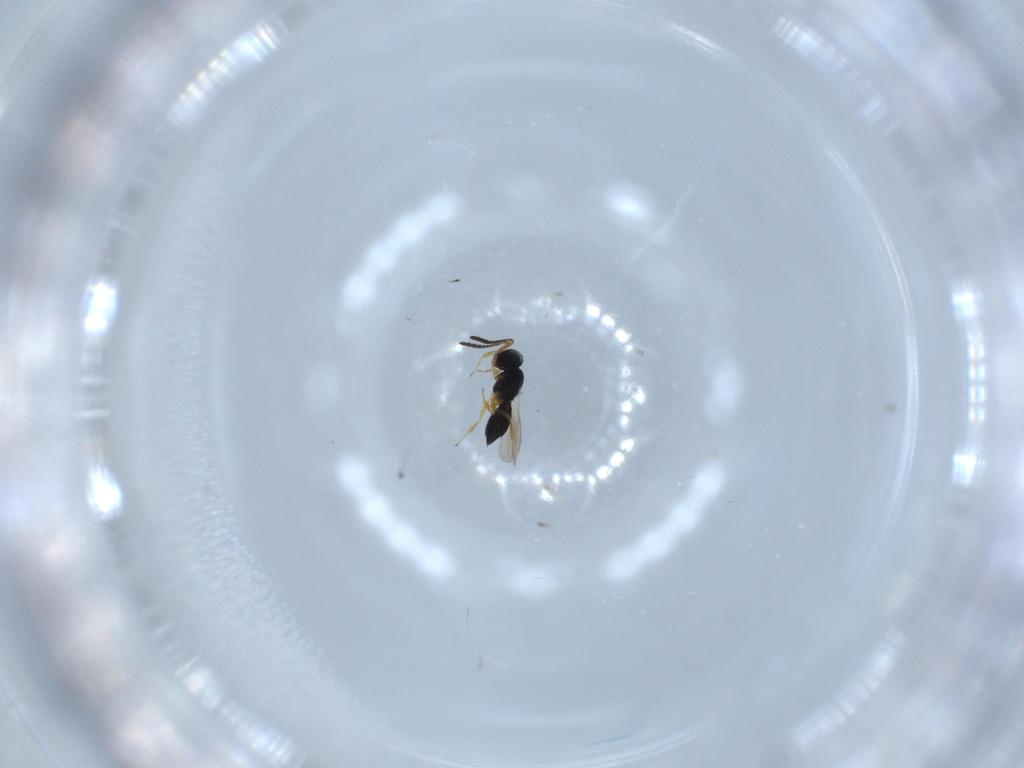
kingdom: Animalia
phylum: Arthropoda
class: Insecta
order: Hymenoptera
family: Scelionidae
